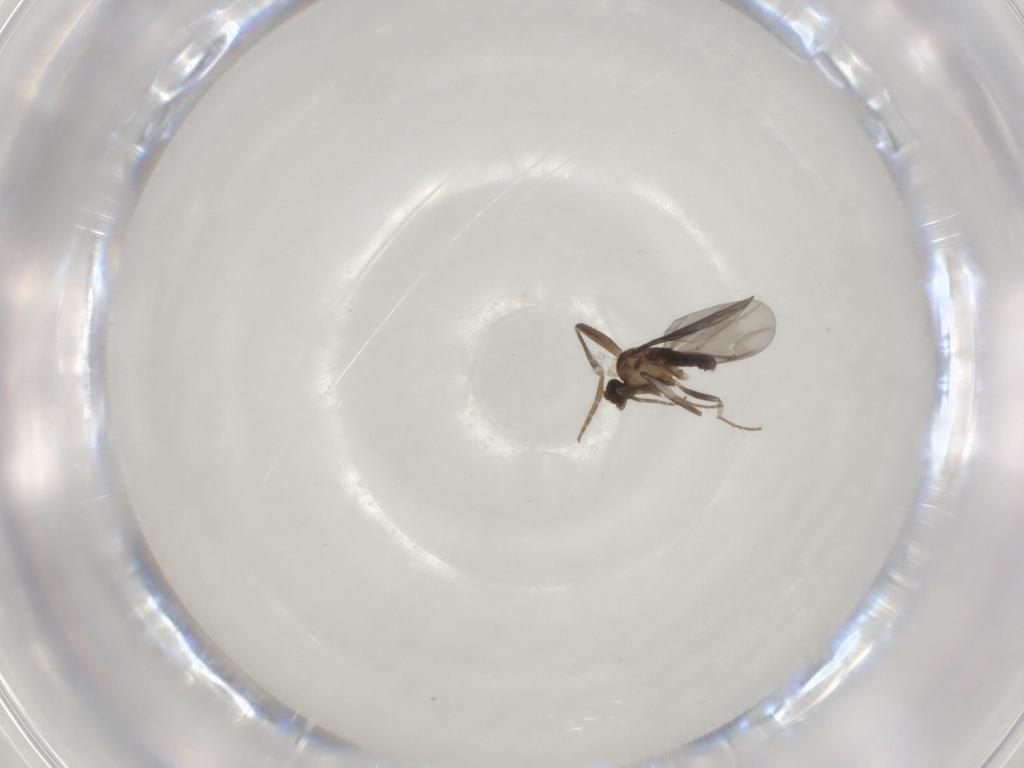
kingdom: Animalia
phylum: Arthropoda
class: Insecta
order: Diptera
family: Phoridae
